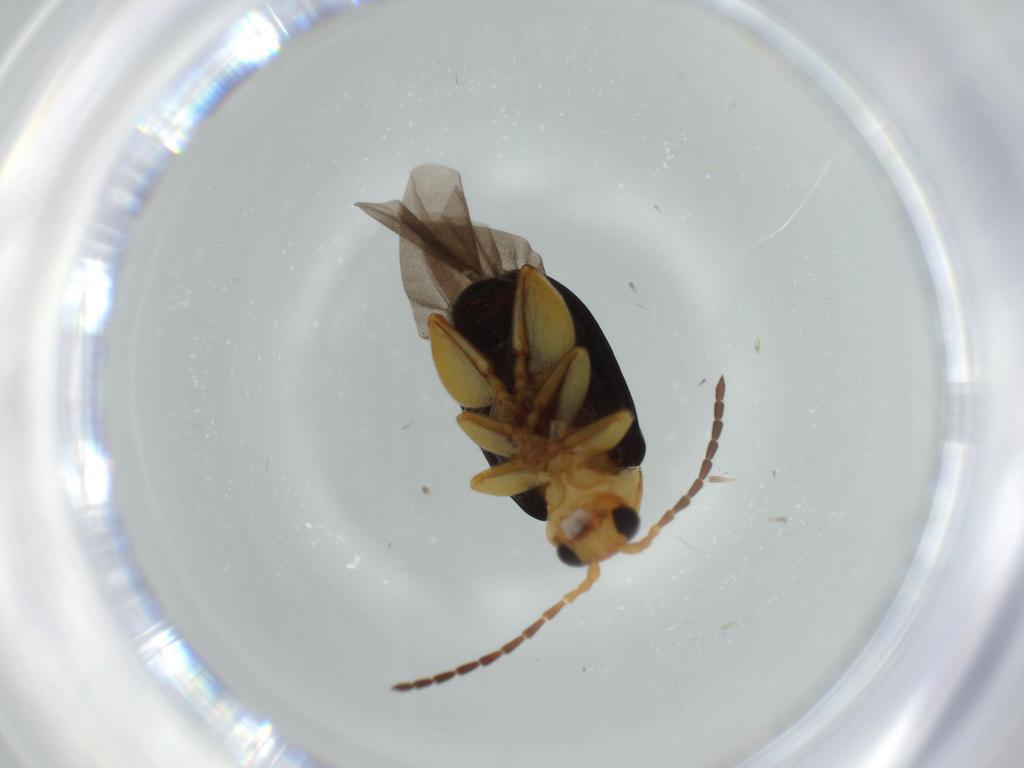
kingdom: Animalia
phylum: Arthropoda
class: Insecta
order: Coleoptera
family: Chrysomelidae
